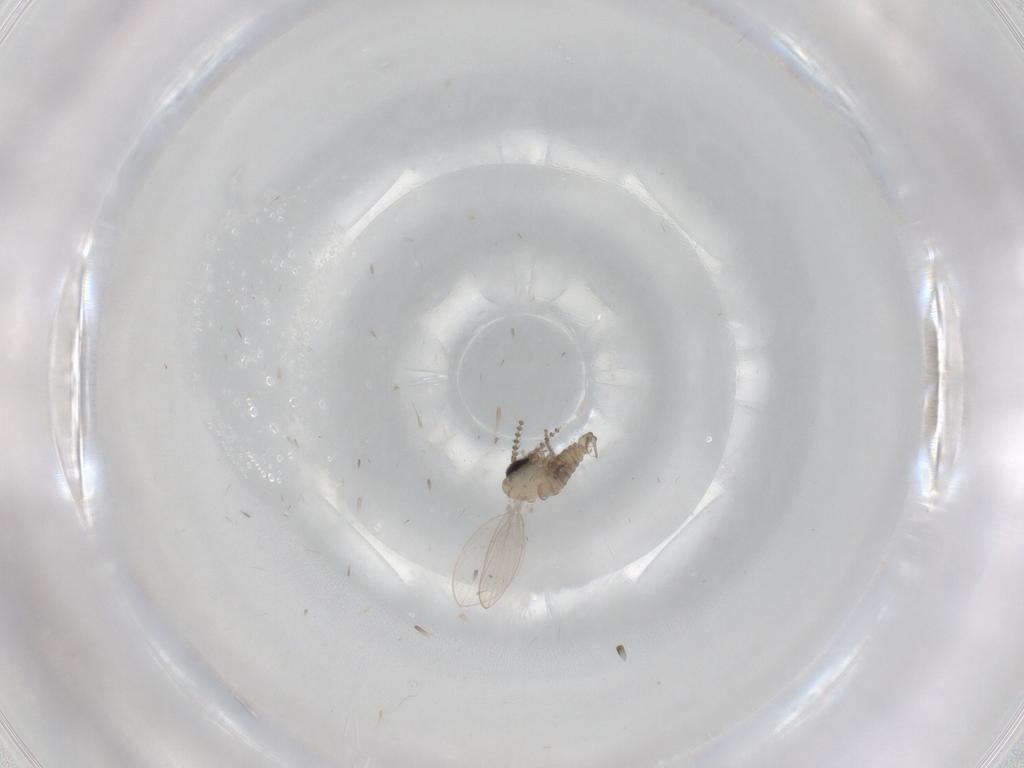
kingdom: Animalia
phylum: Arthropoda
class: Insecta
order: Diptera
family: Psychodidae
